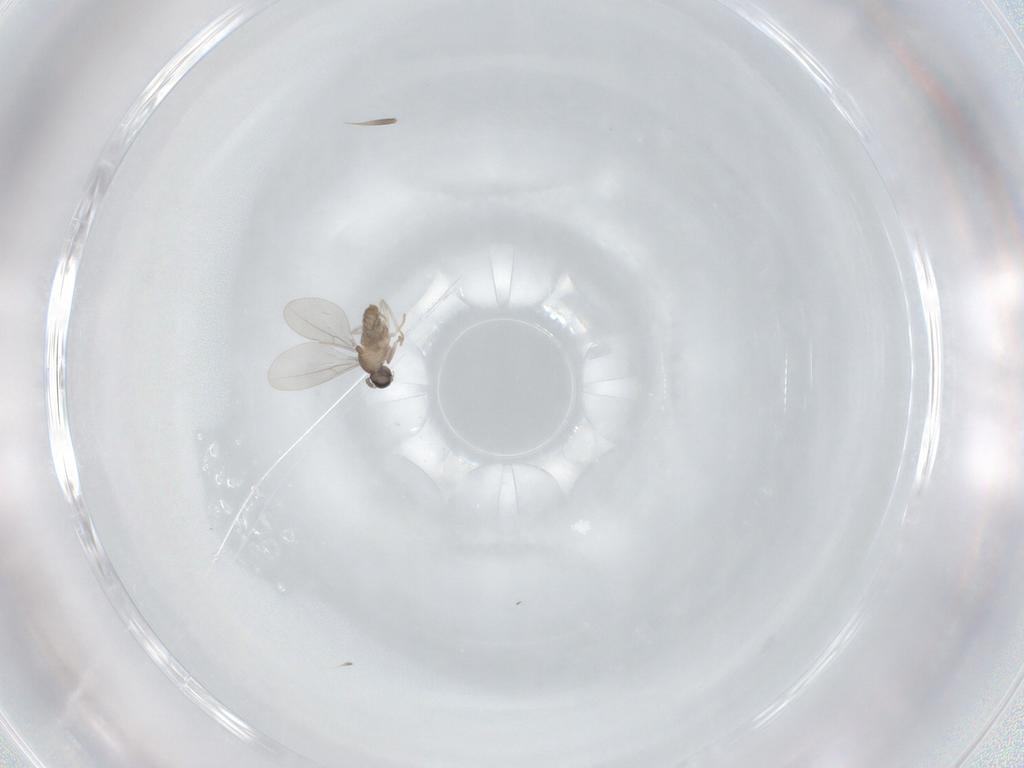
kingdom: Animalia
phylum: Arthropoda
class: Insecta
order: Diptera
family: Phoridae
